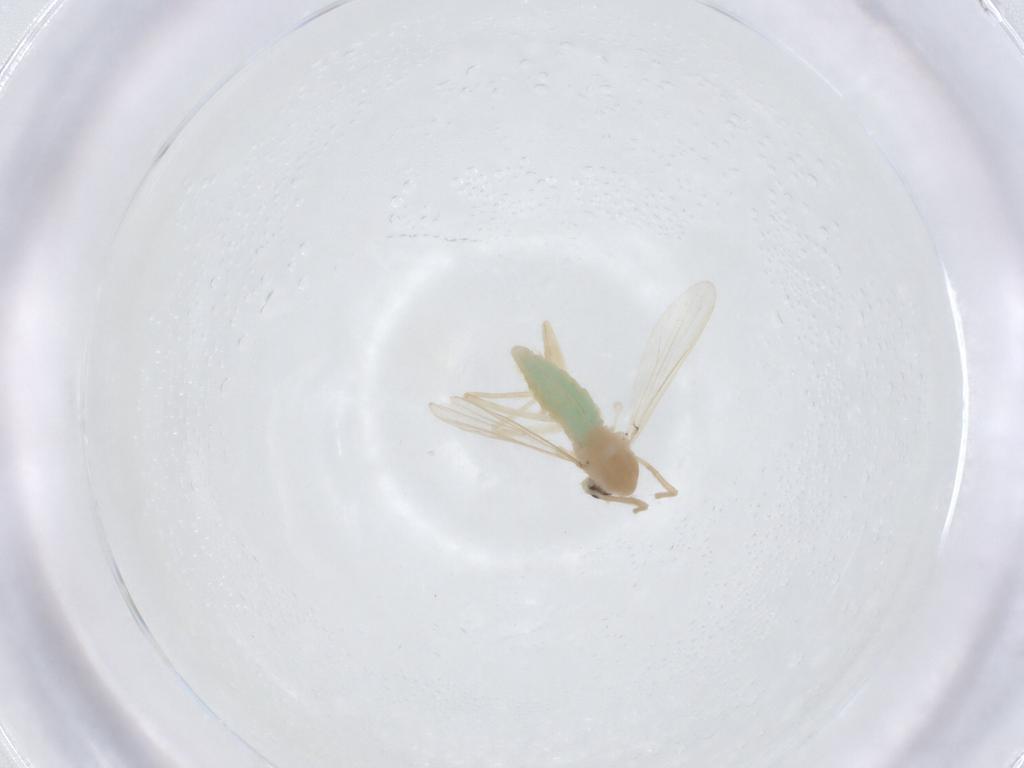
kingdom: Animalia
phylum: Arthropoda
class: Insecta
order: Diptera
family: Chironomidae
